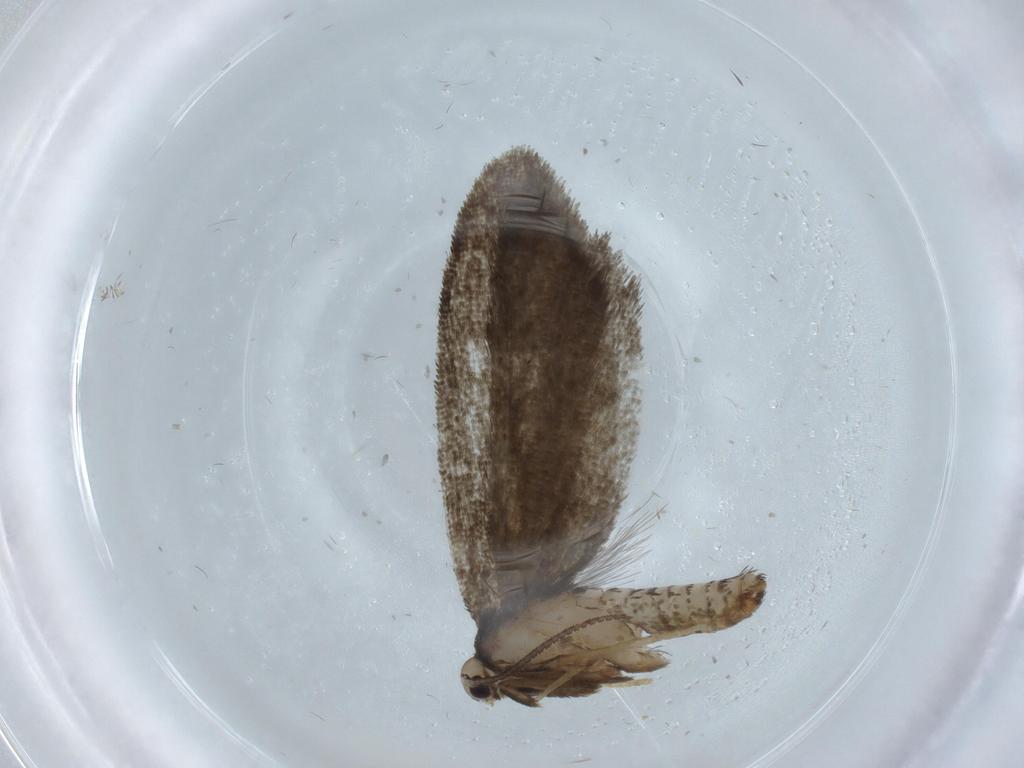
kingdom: Animalia
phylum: Arthropoda
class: Insecta
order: Lepidoptera
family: Psychidae
